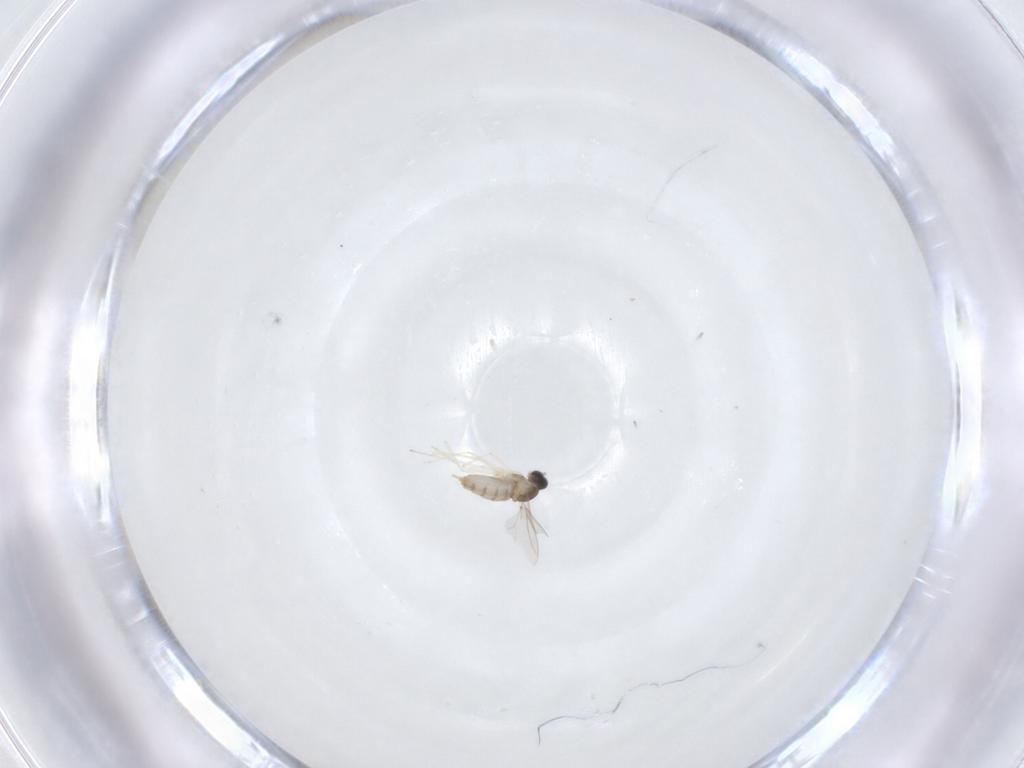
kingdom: Animalia
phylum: Arthropoda
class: Insecta
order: Diptera
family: Cecidomyiidae
